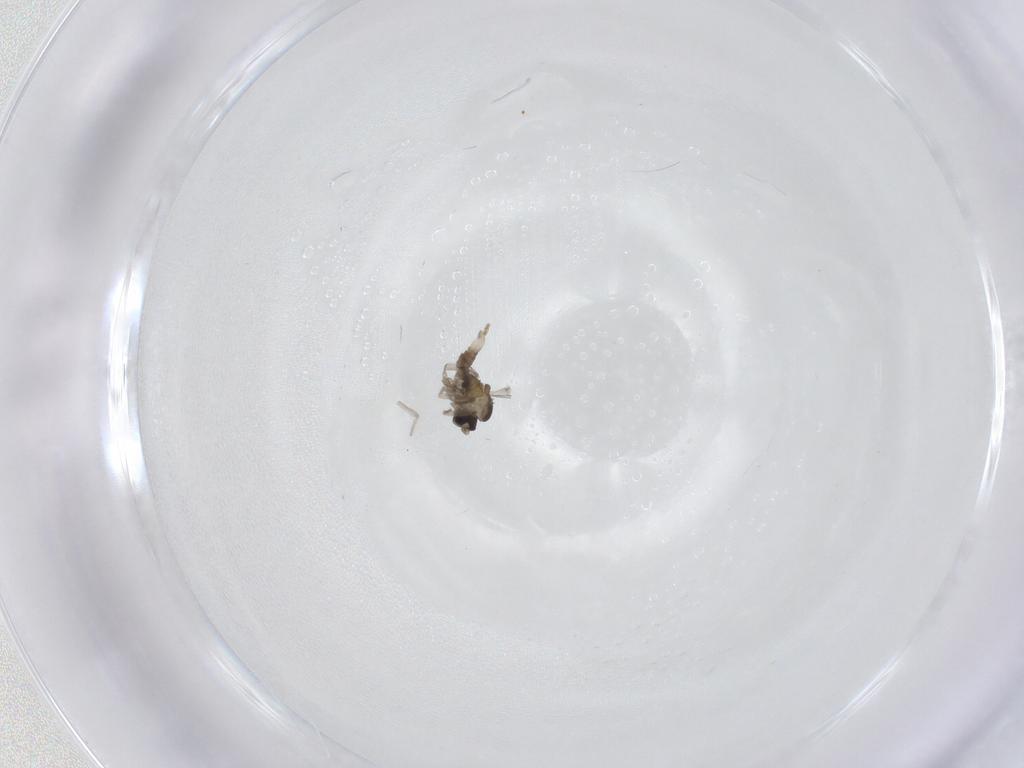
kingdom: Animalia
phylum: Arthropoda
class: Insecta
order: Diptera
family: Cecidomyiidae
